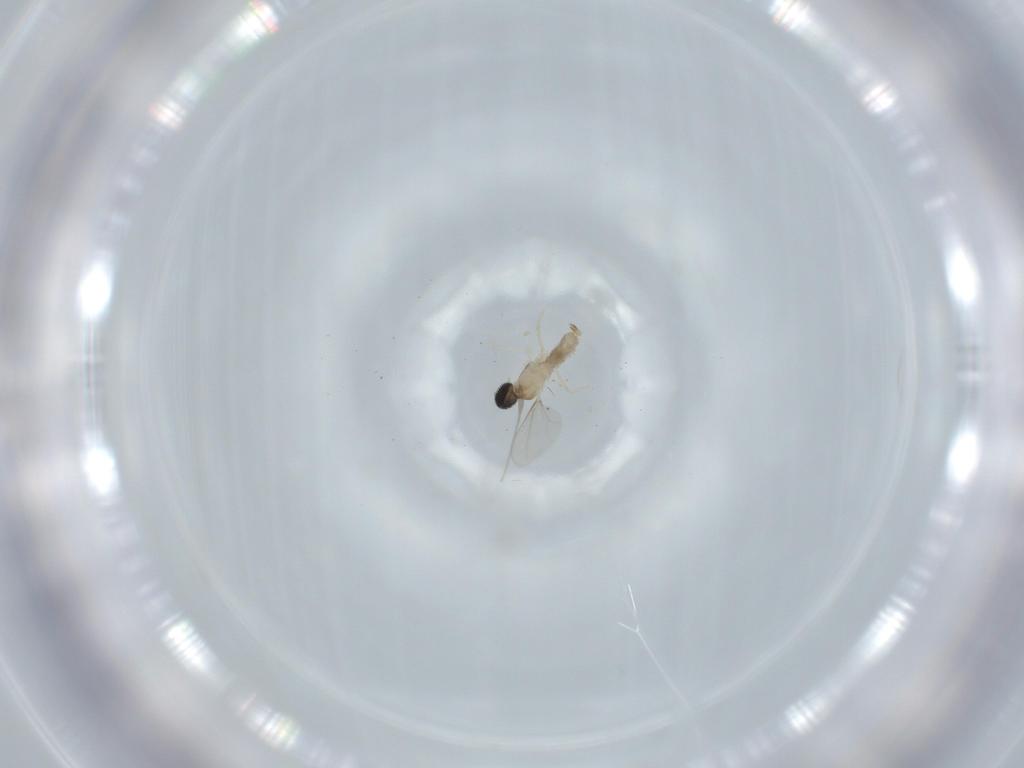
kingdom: Animalia
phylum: Arthropoda
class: Insecta
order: Diptera
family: Cecidomyiidae
